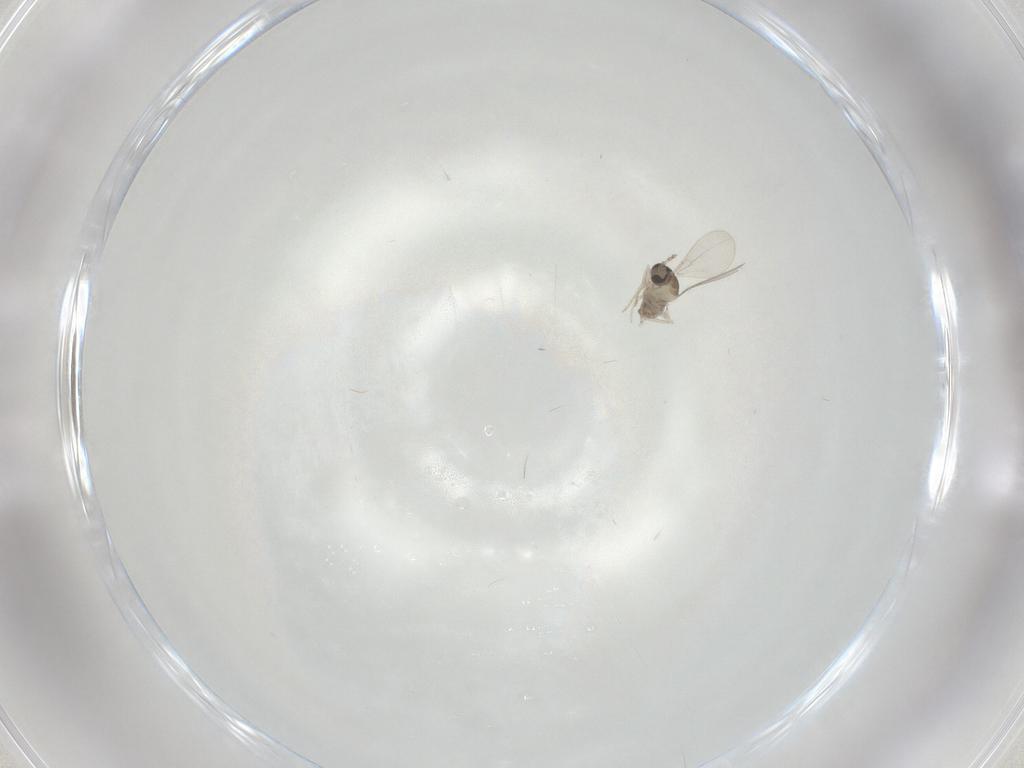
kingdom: Animalia
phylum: Arthropoda
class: Insecta
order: Diptera
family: Cecidomyiidae
